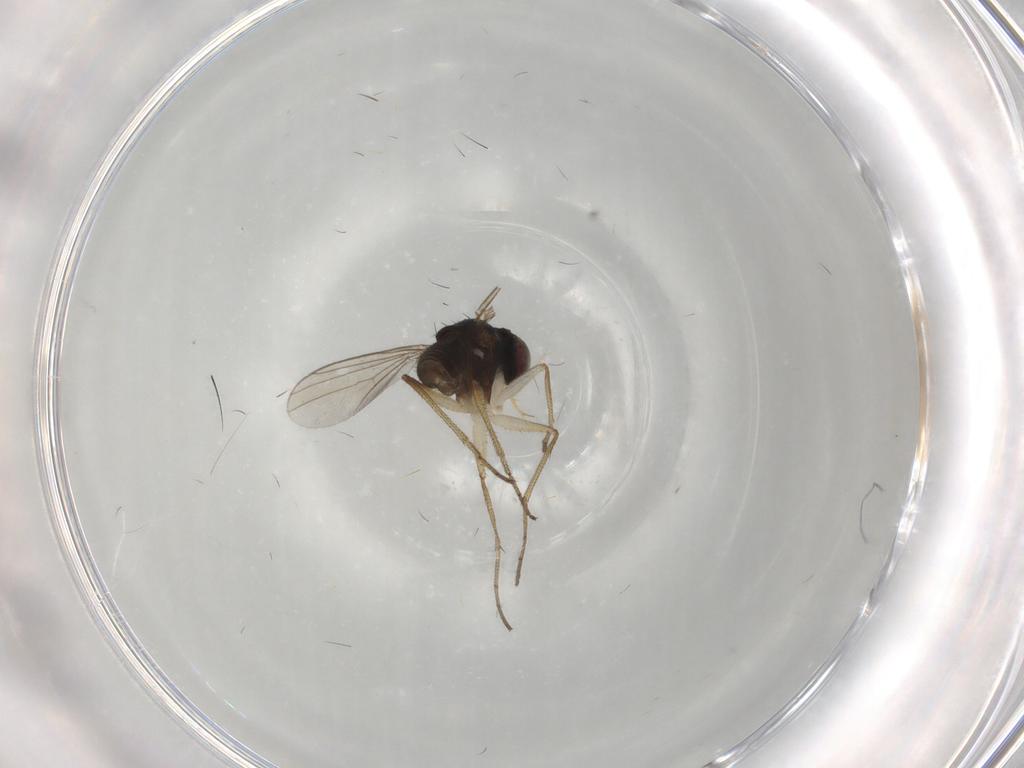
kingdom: Animalia
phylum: Arthropoda
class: Insecta
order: Diptera
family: Dolichopodidae
